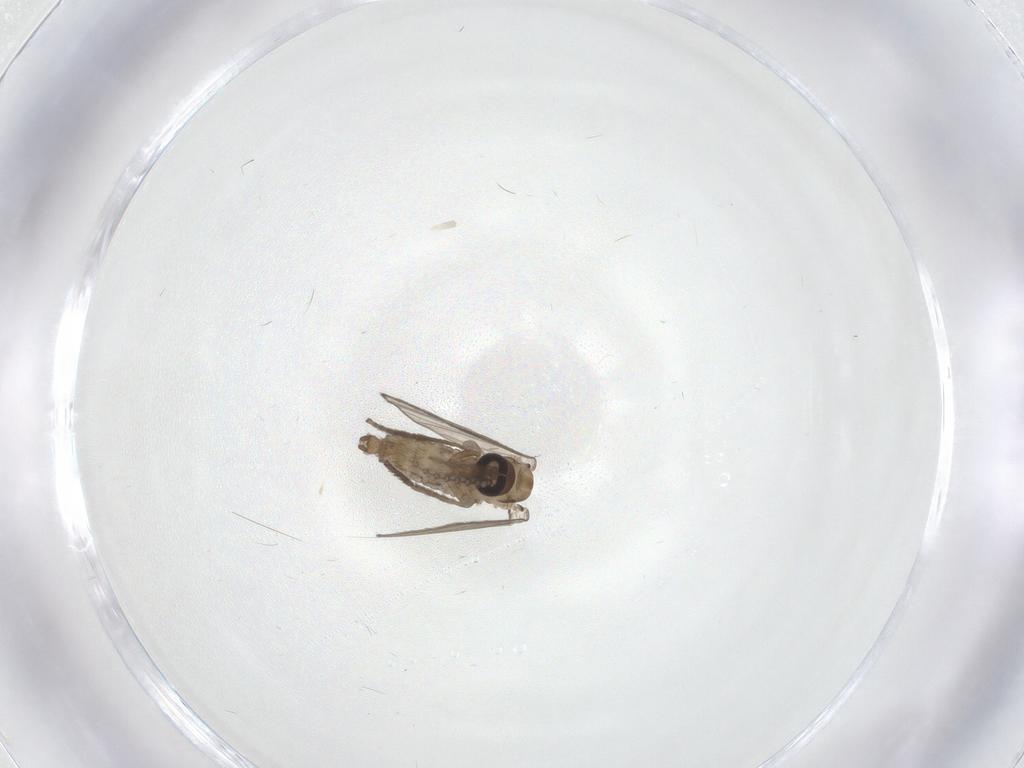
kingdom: Animalia
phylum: Arthropoda
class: Insecta
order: Diptera
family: Psychodidae
